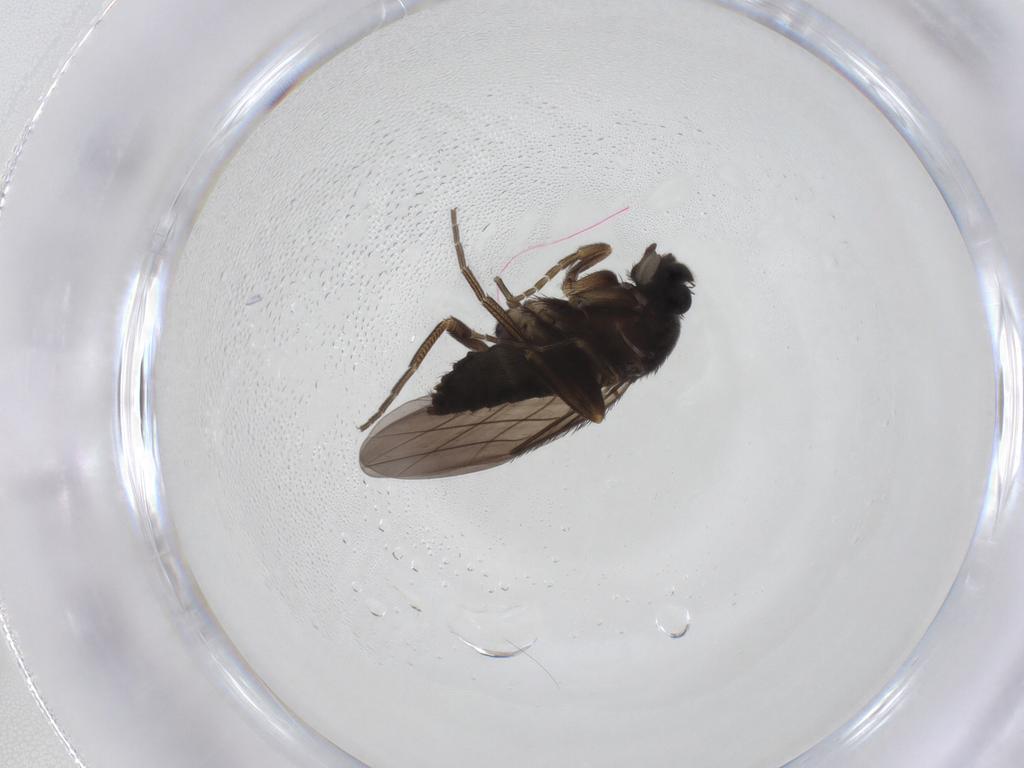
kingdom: Animalia
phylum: Arthropoda
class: Insecta
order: Diptera
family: Phoridae
